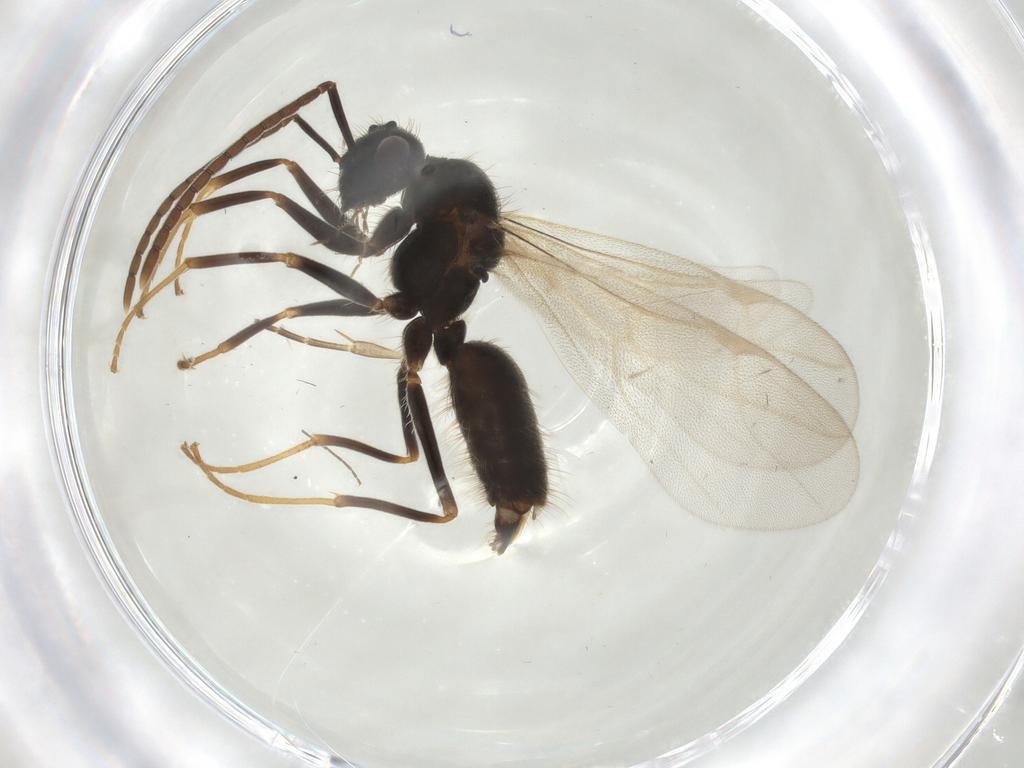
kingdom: Animalia
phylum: Arthropoda
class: Insecta
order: Hymenoptera
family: Formicidae
